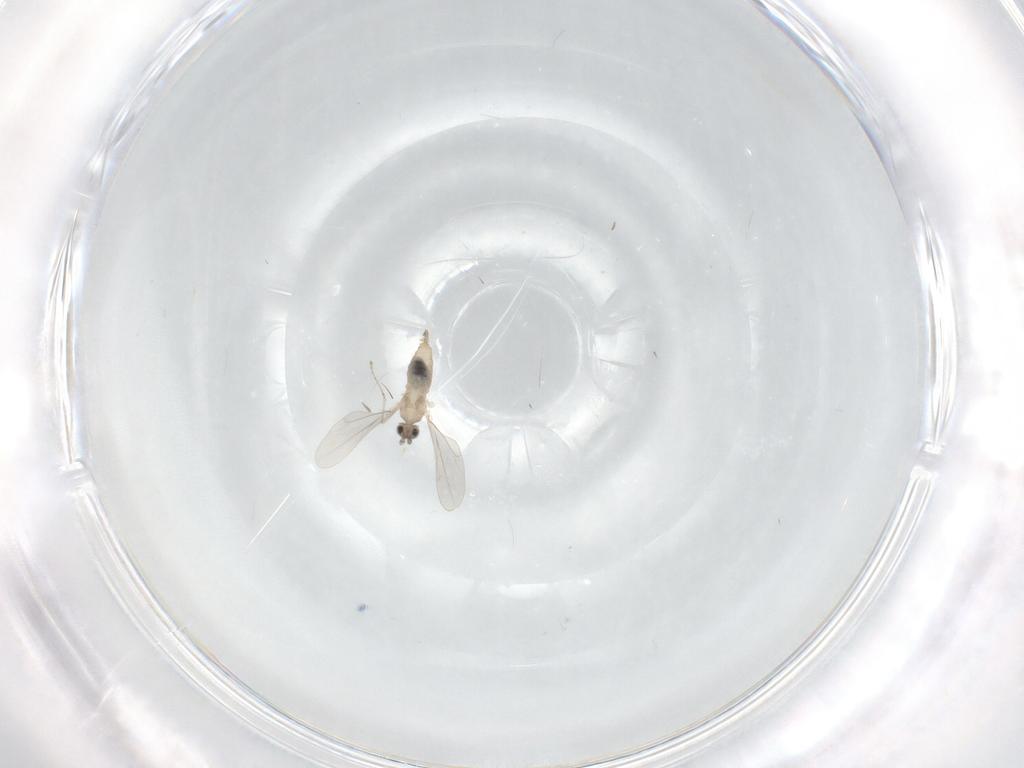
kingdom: Animalia
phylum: Arthropoda
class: Insecta
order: Diptera
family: Cecidomyiidae
